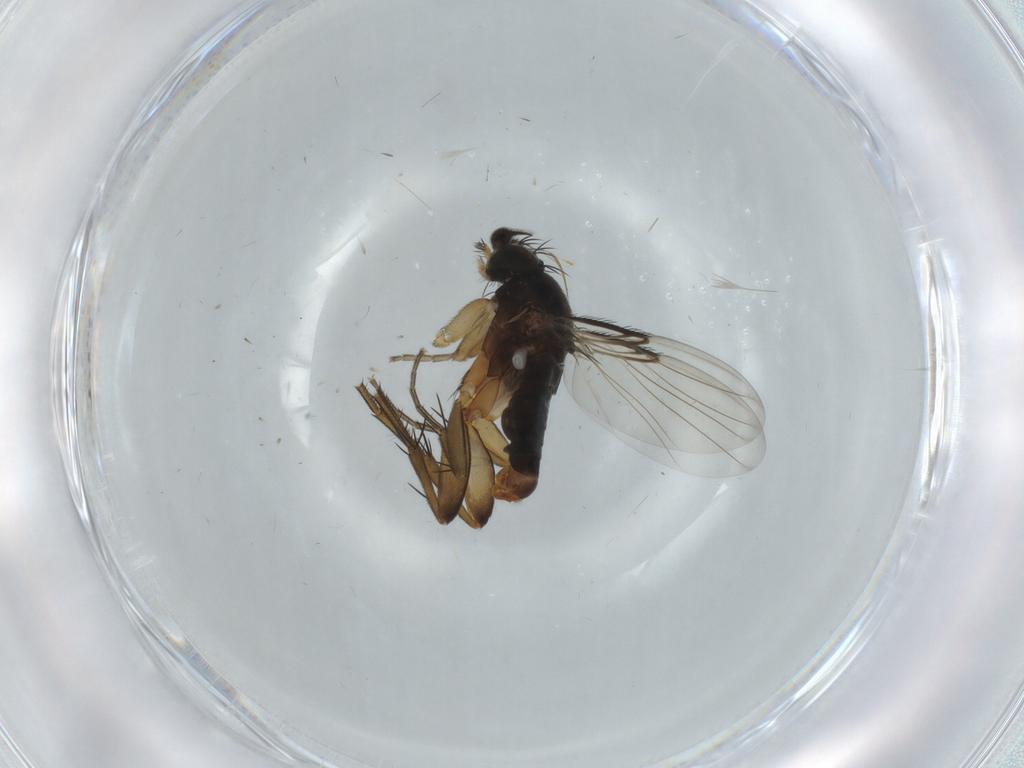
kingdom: Animalia
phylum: Arthropoda
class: Insecta
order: Diptera
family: Phoridae
